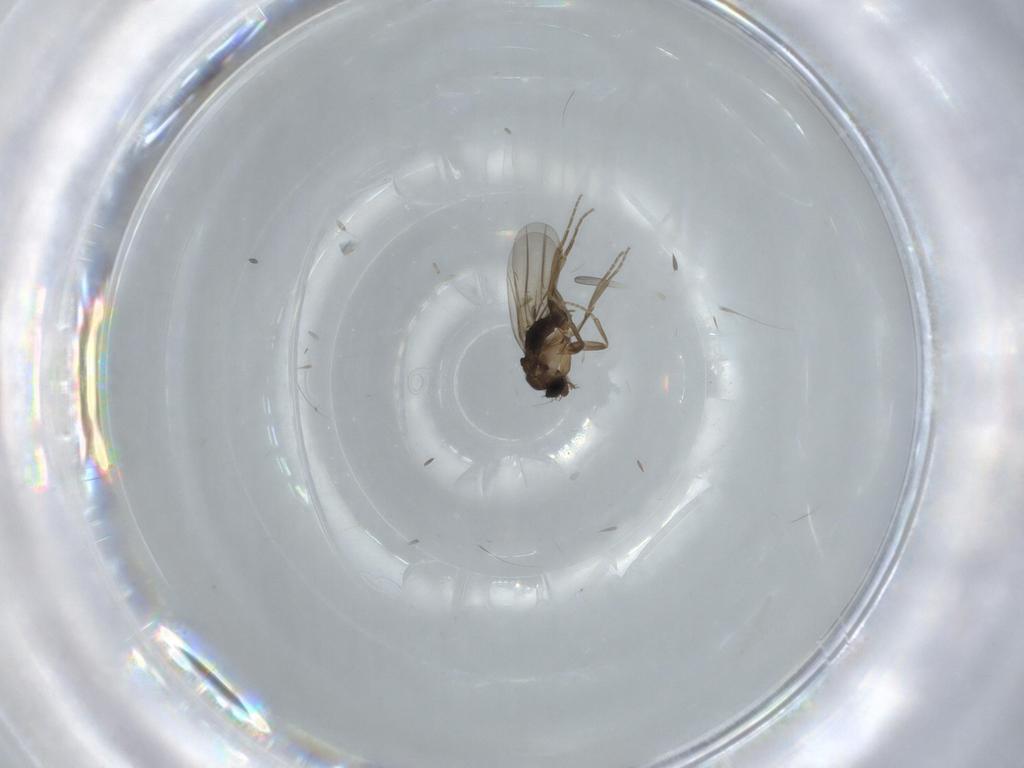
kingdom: Animalia
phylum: Arthropoda
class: Insecta
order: Diptera
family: Phoridae
